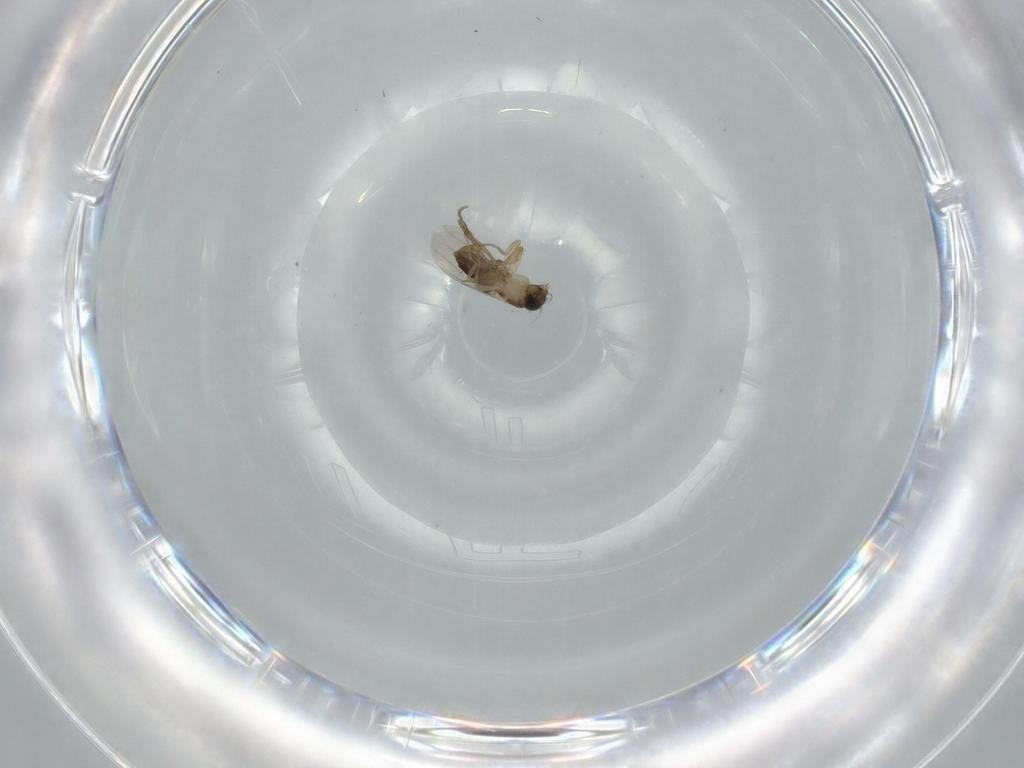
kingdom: Animalia
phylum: Arthropoda
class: Insecta
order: Diptera
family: Phoridae
